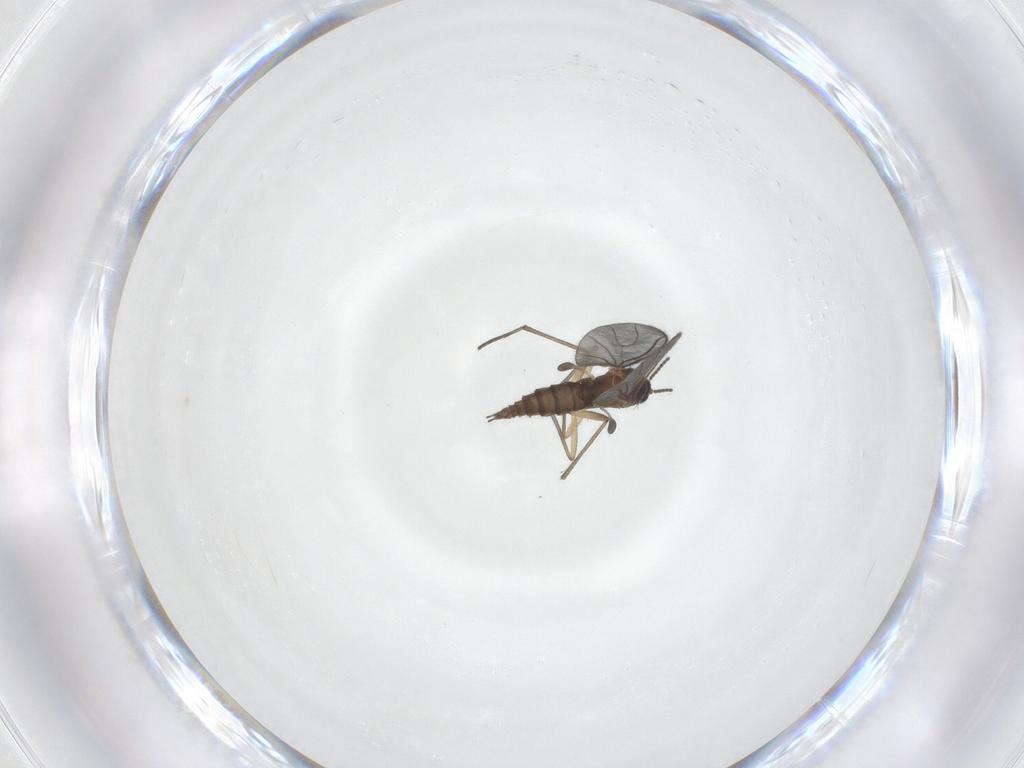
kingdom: Animalia
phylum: Arthropoda
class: Insecta
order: Diptera
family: Sciaridae
